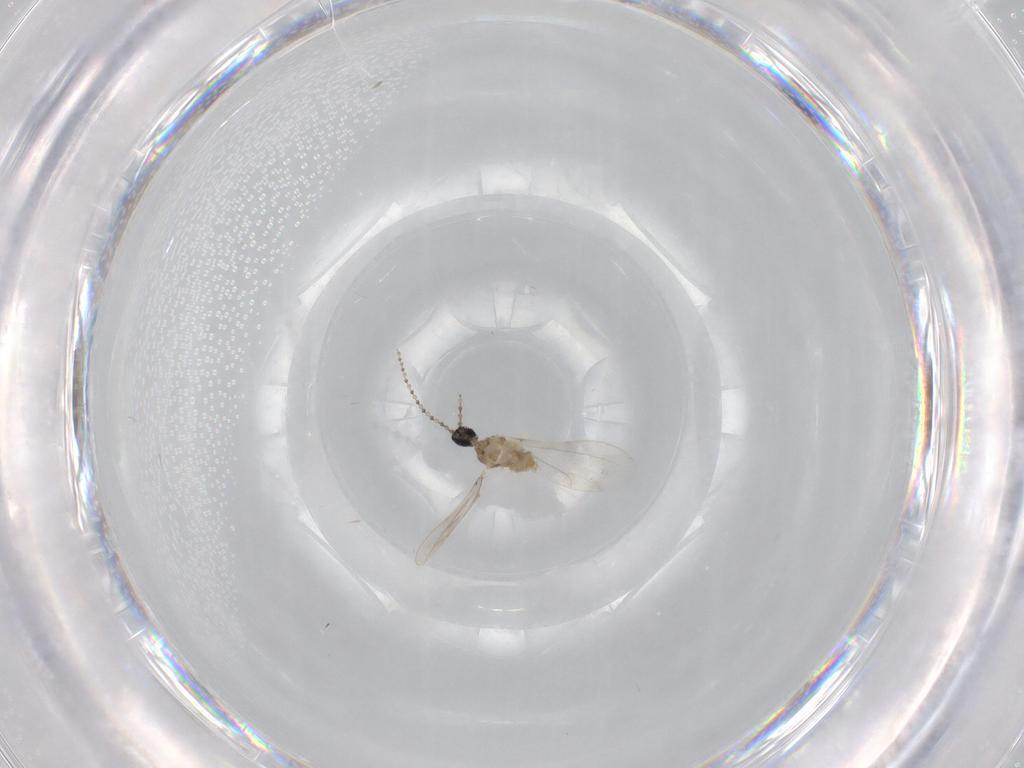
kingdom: Animalia
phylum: Arthropoda
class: Insecta
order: Diptera
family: Cecidomyiidae
